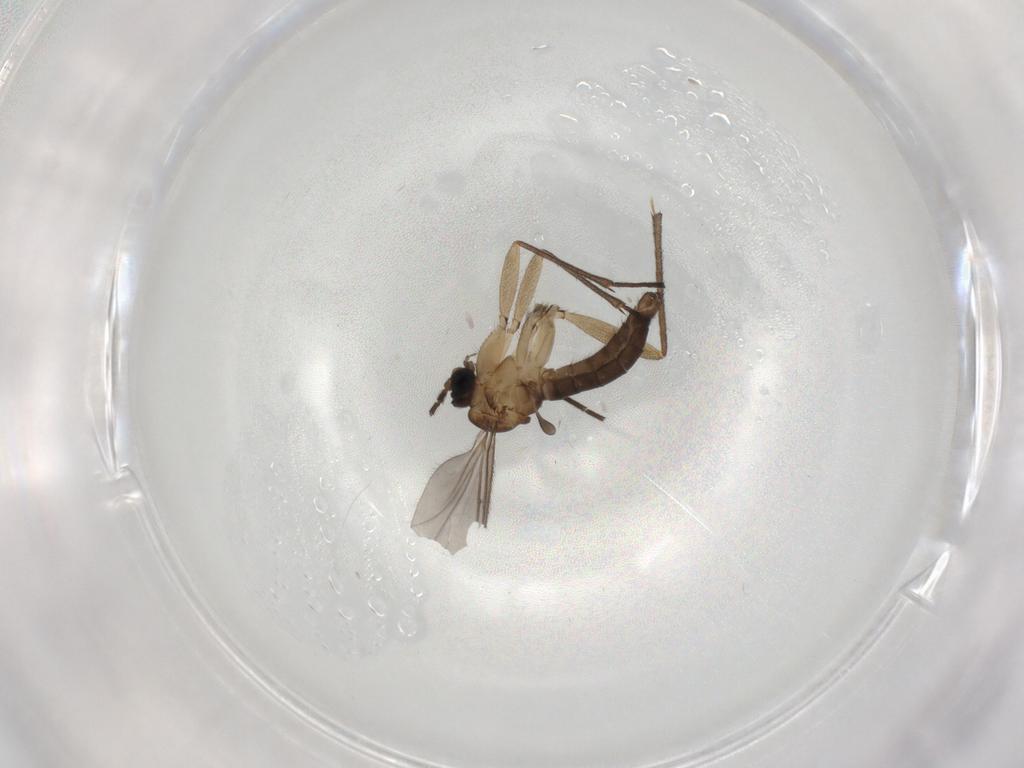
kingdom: Animalia
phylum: Arthropoda
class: Insecta
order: Diptera
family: Sciaridae
